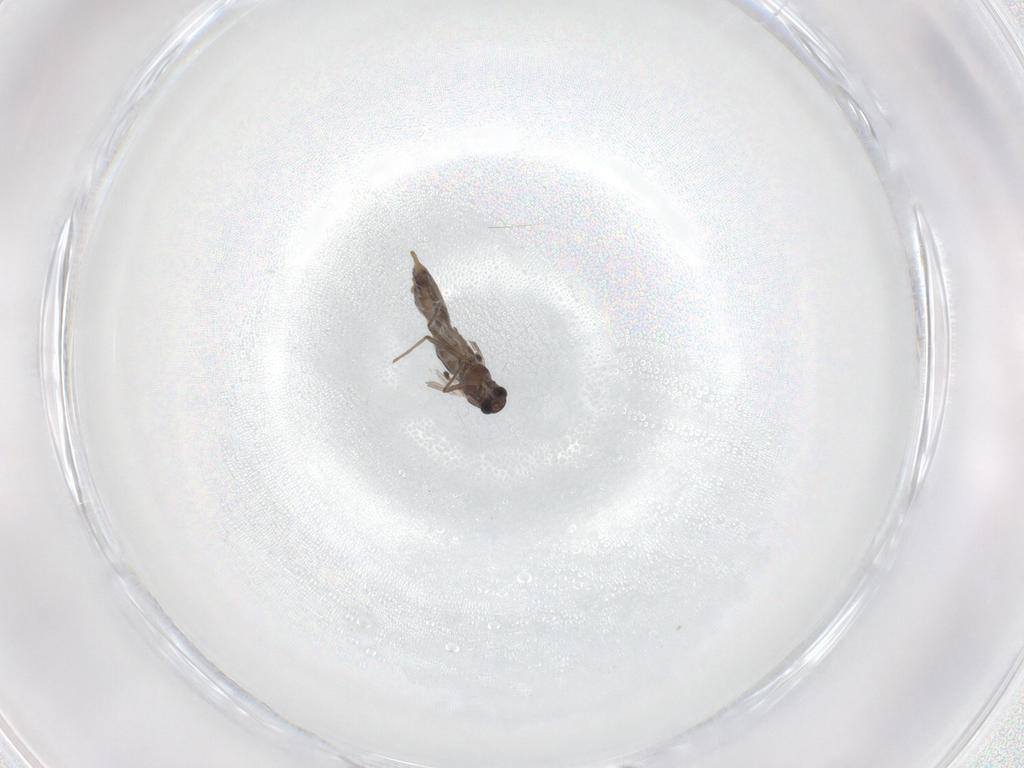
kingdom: Animalia
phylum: Arthropoda
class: Insecta
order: Diptera
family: Chironomidae
